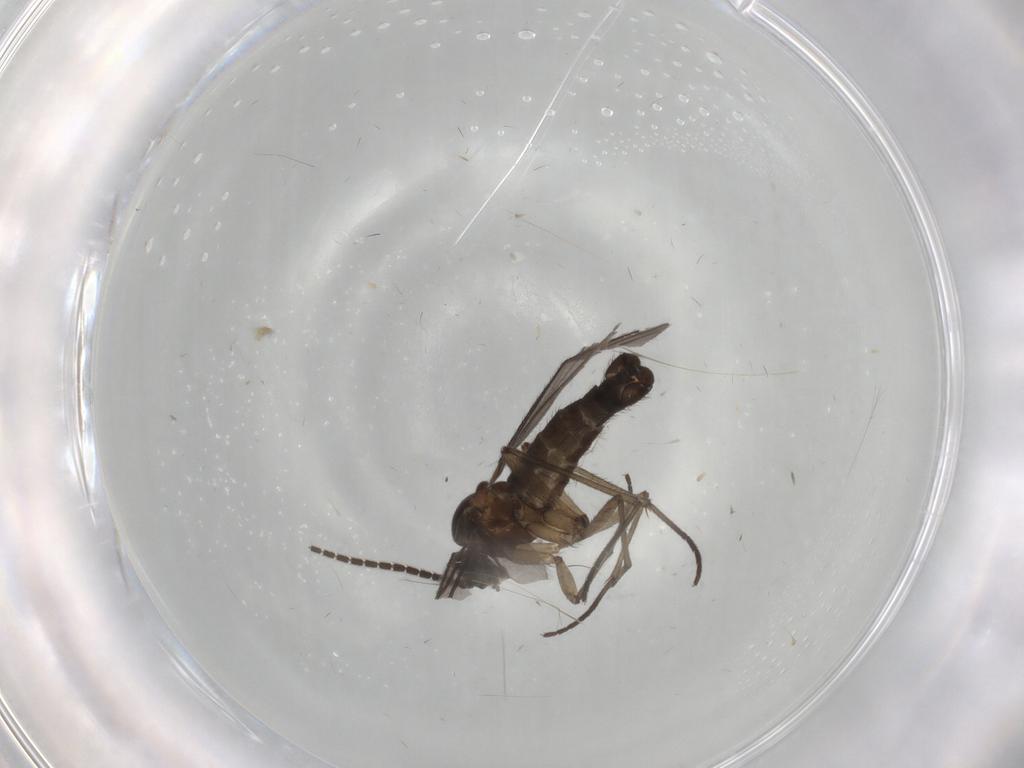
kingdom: Animalia
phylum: Arthropoda
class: Insecta
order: Diptera
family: Sciaridae
